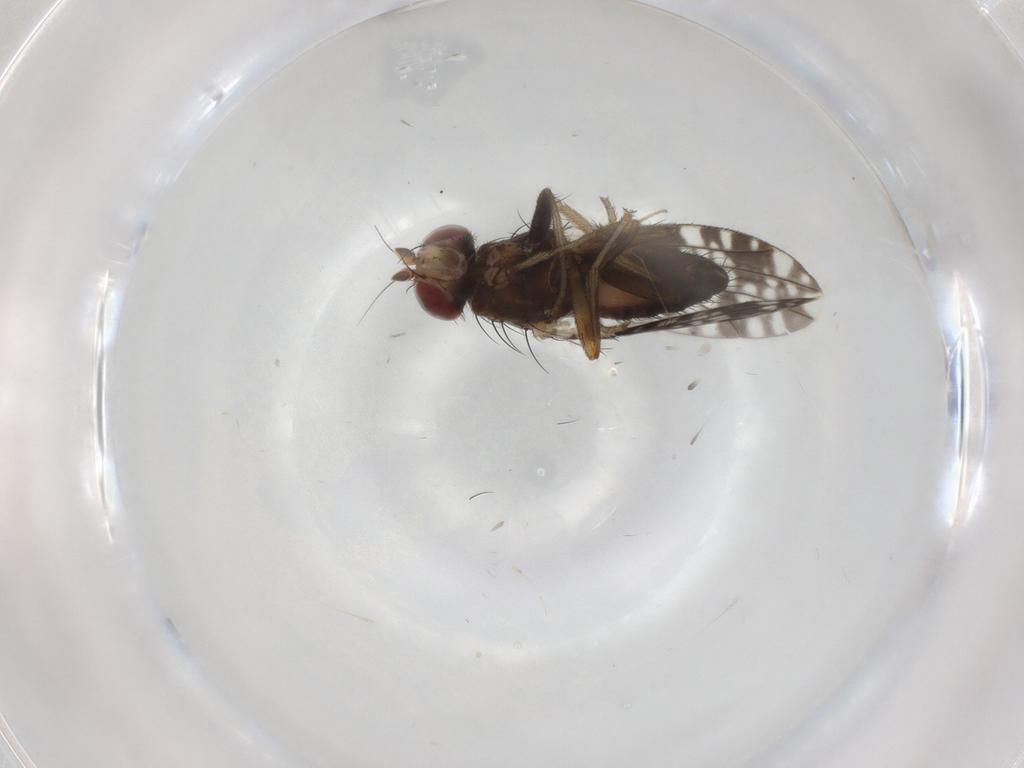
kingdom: Animalia
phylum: Arthropoda
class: Insecta
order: Diptera
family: Tephritidae
